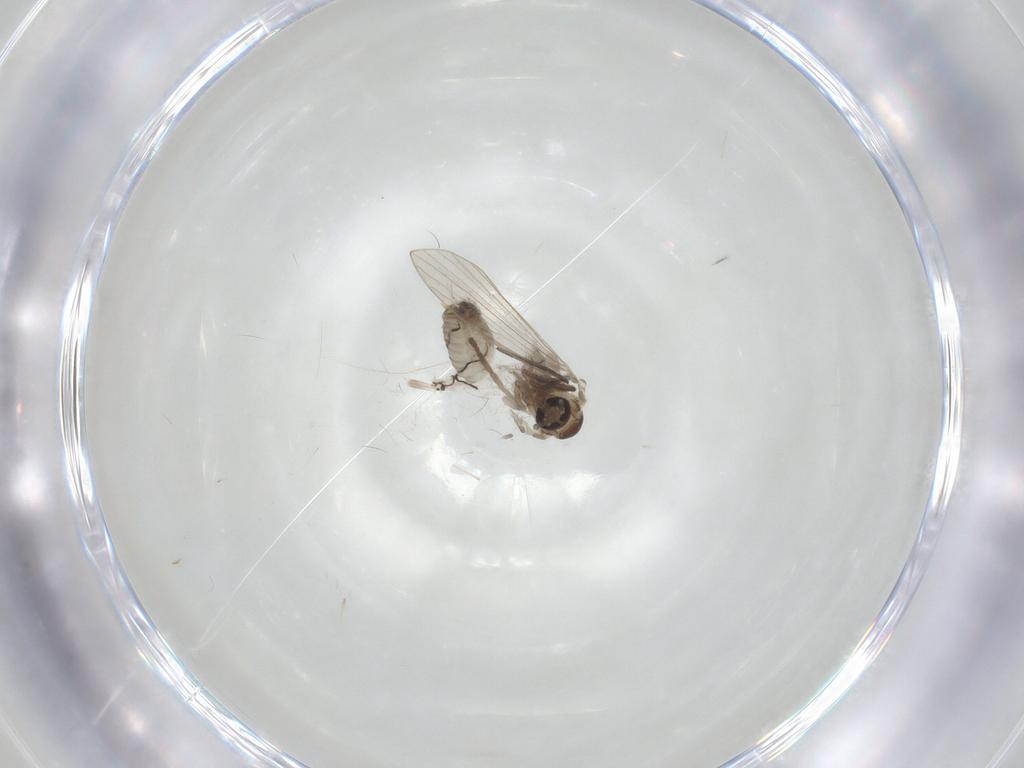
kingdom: Animalia
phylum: Arthropoda
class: Insecta
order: Diptera
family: Psychodidae
